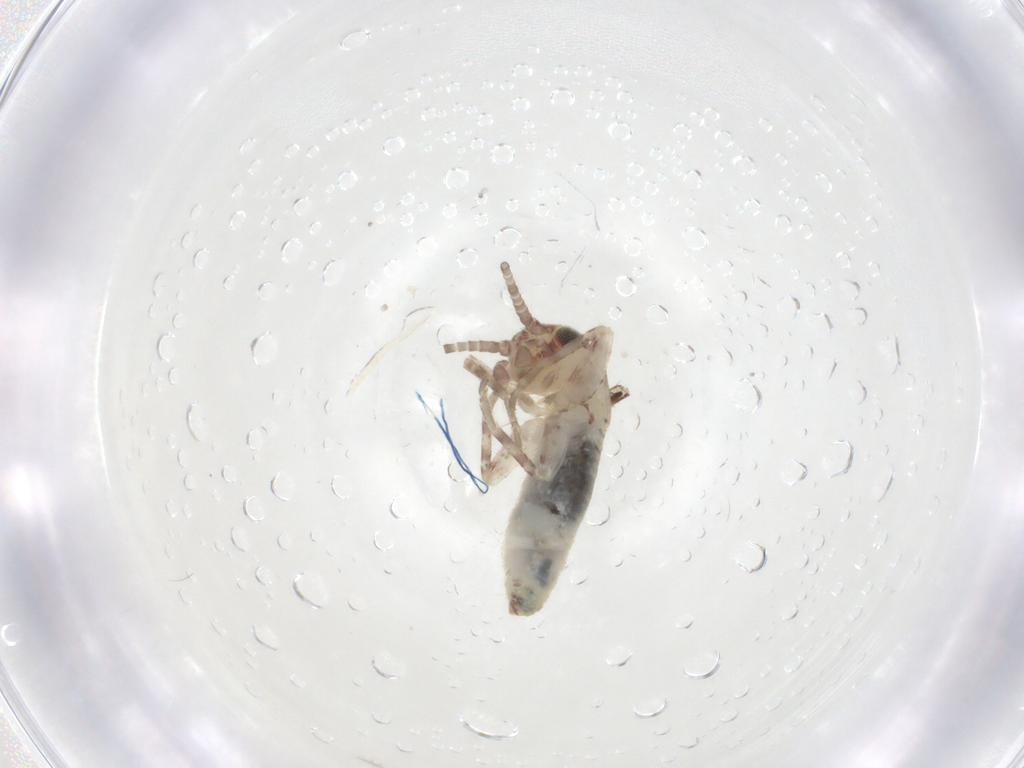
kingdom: Animalia
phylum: Arthropoda
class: Insecta
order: Orthoptera
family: Mogoplistidae
